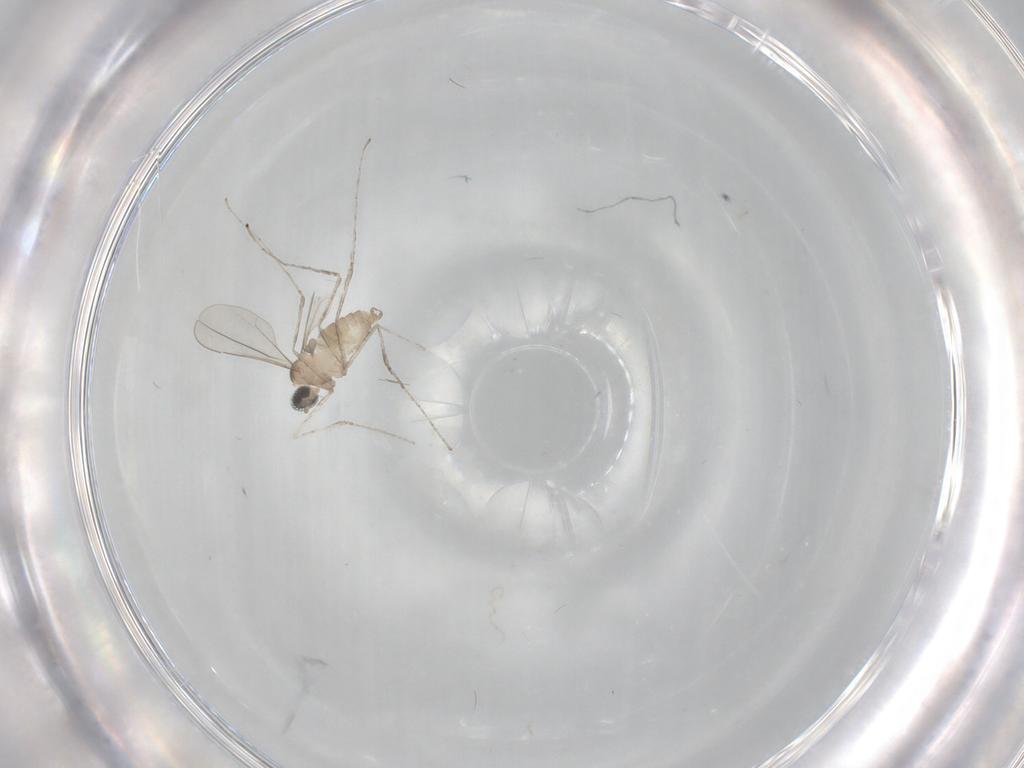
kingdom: Animalia
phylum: Arthropoda
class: Insecta
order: Diptera
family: Cecidomyiidae
